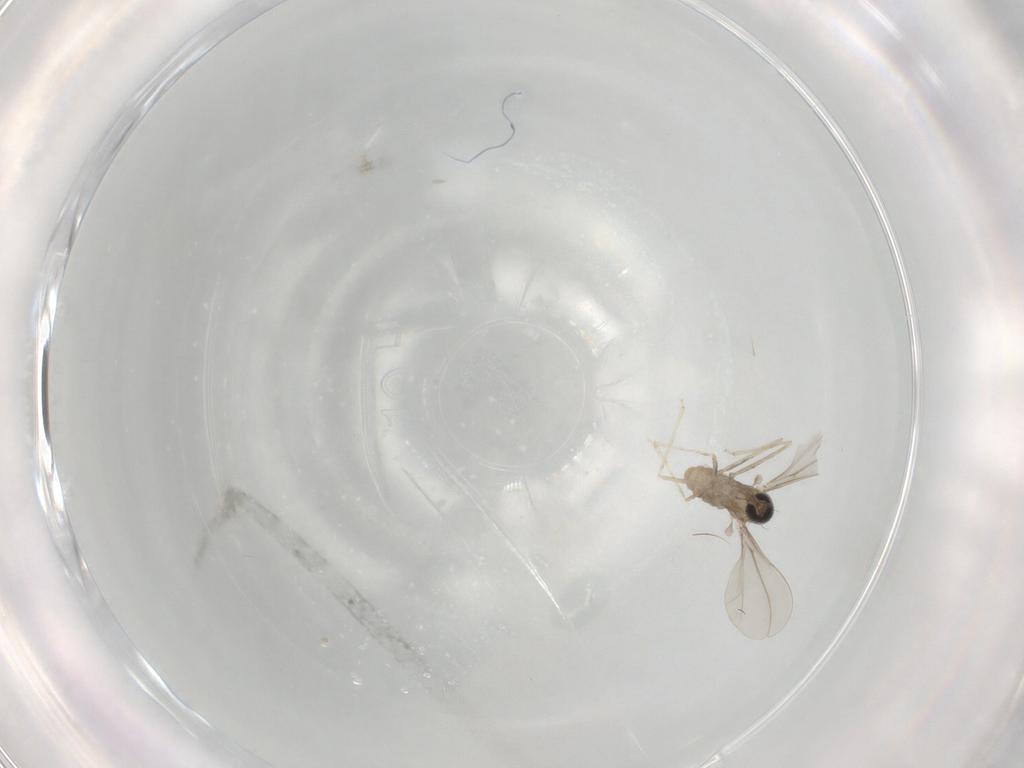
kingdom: Animalia
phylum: Arthropoda
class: Insecta
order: Diptera
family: Cecidomyiidae
